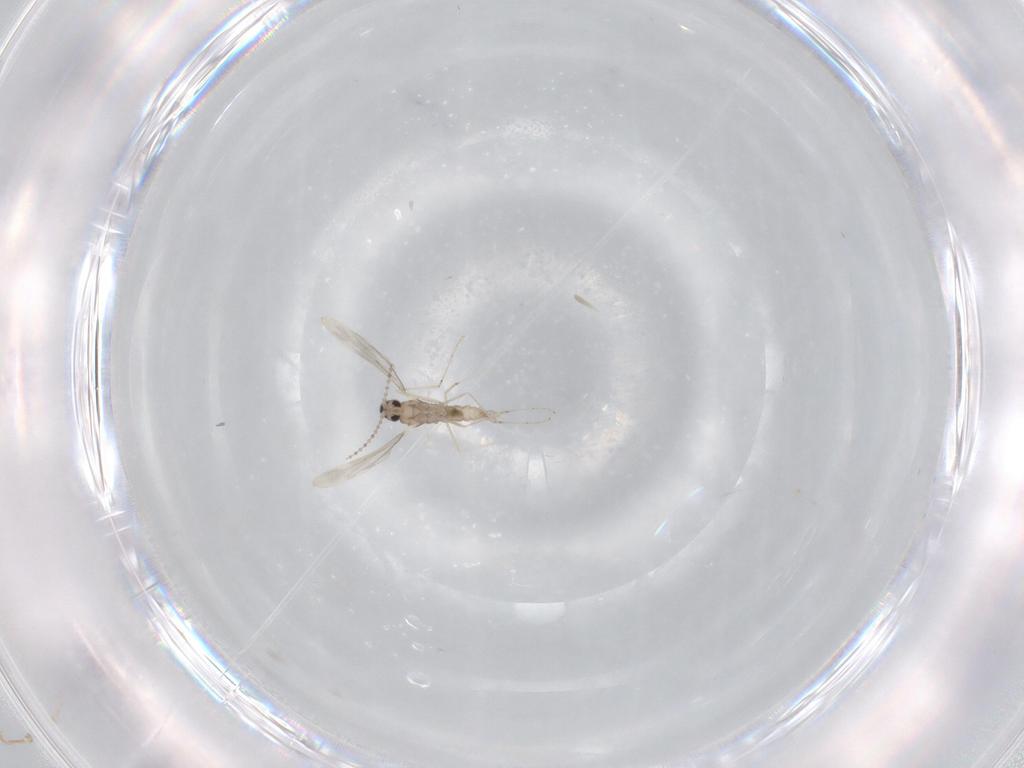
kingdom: Animalia
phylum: Arthropoda
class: Insecta
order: Diptera
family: Cecidomyiidae
